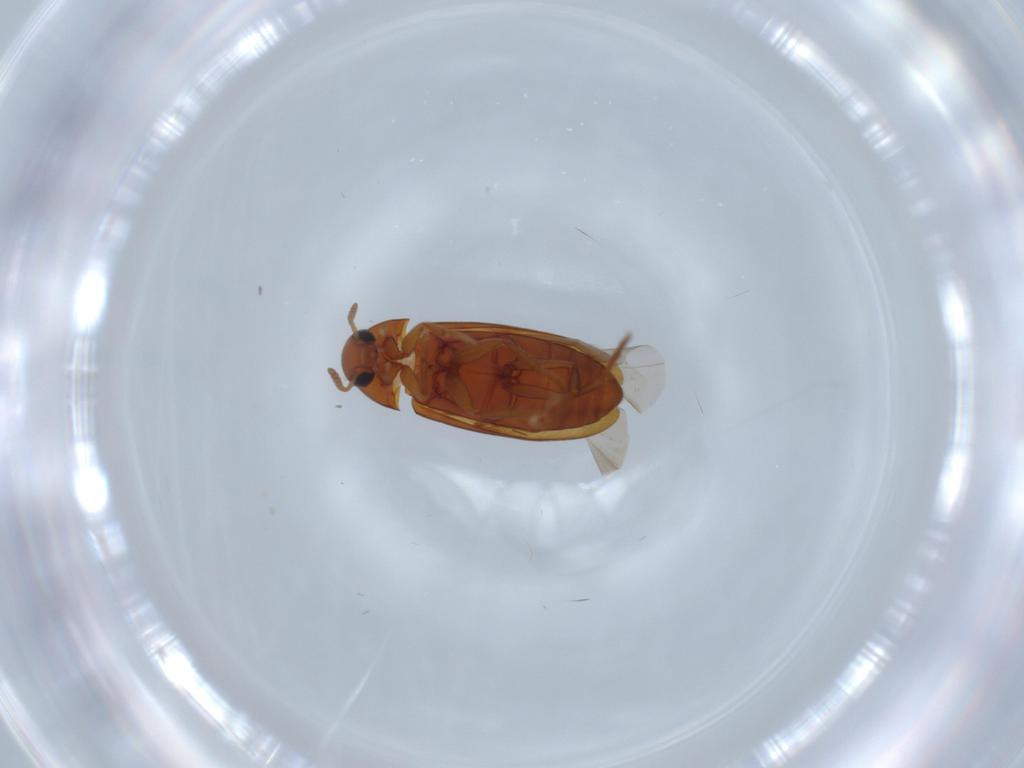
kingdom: Animalia
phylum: Arthropoda
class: Insecta
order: Coleoptera
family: Scraptiidae
